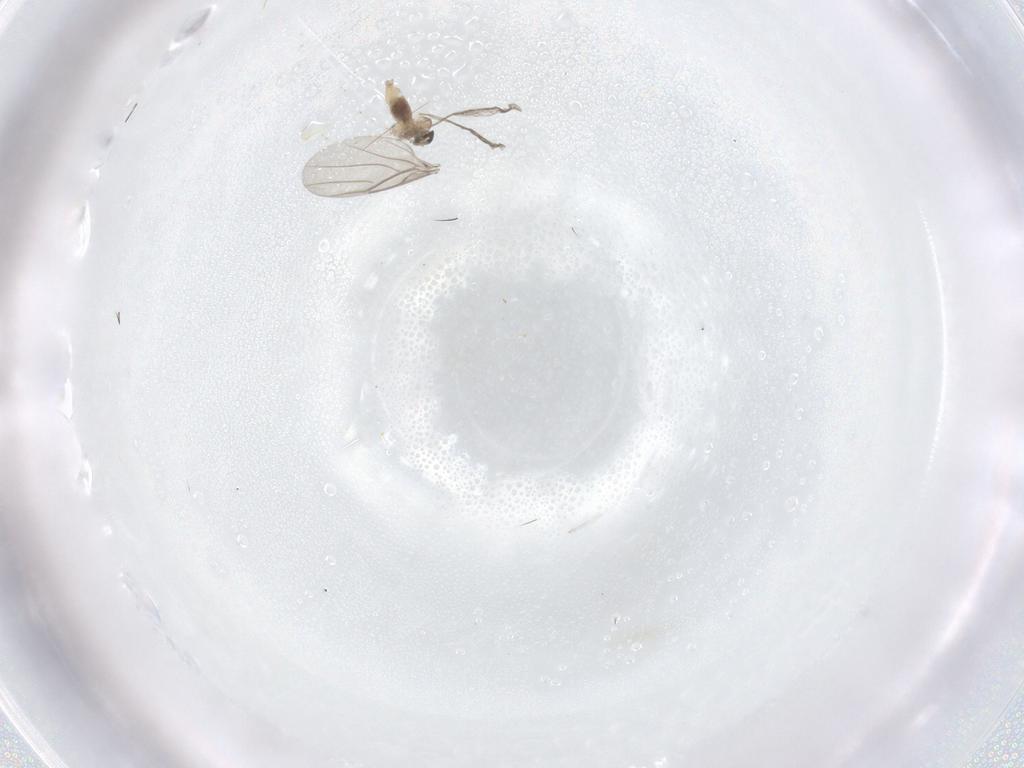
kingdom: Animalia
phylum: Arthropoda
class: Insecta
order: Diptera
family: Cecidomyiidae
